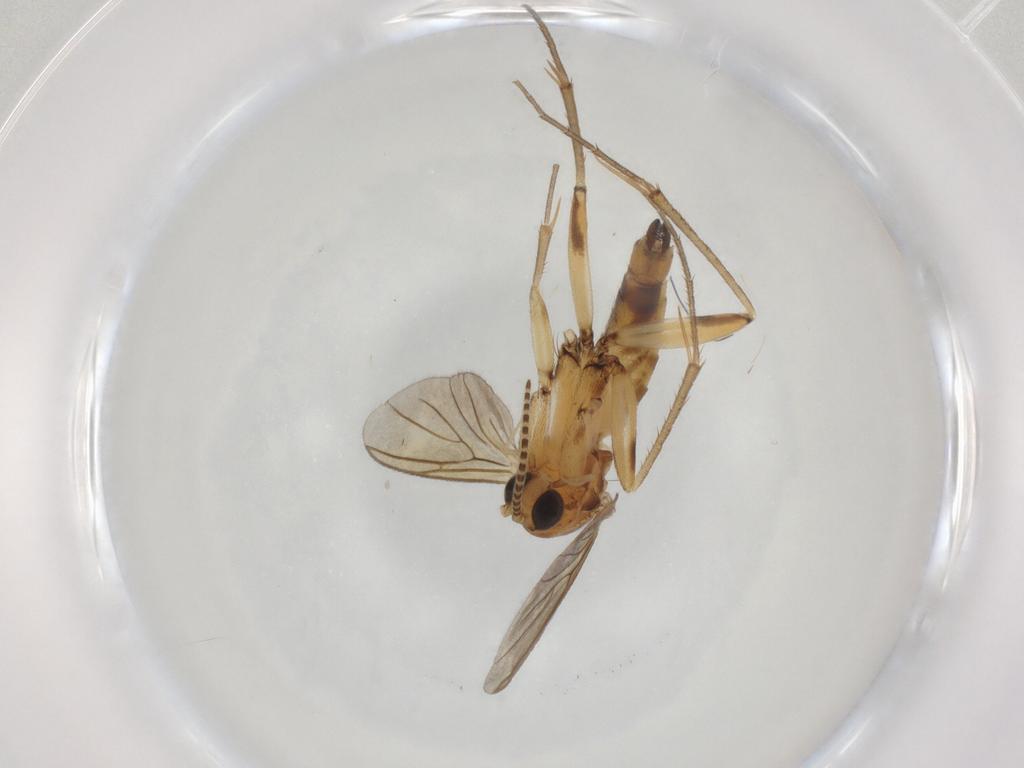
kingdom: Animalia
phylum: Arthropoda
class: Insecta
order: Diptera
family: Mycetophilidae
